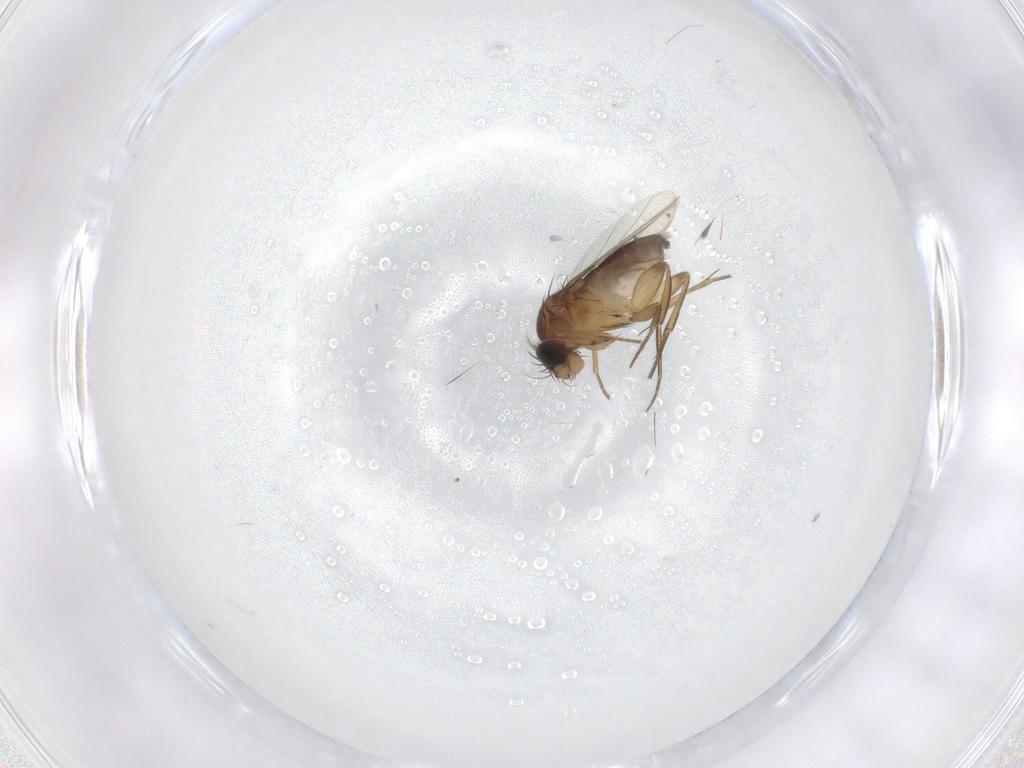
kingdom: Animalia
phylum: Arthropoda
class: Insecta
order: Diptera
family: Phoridae
